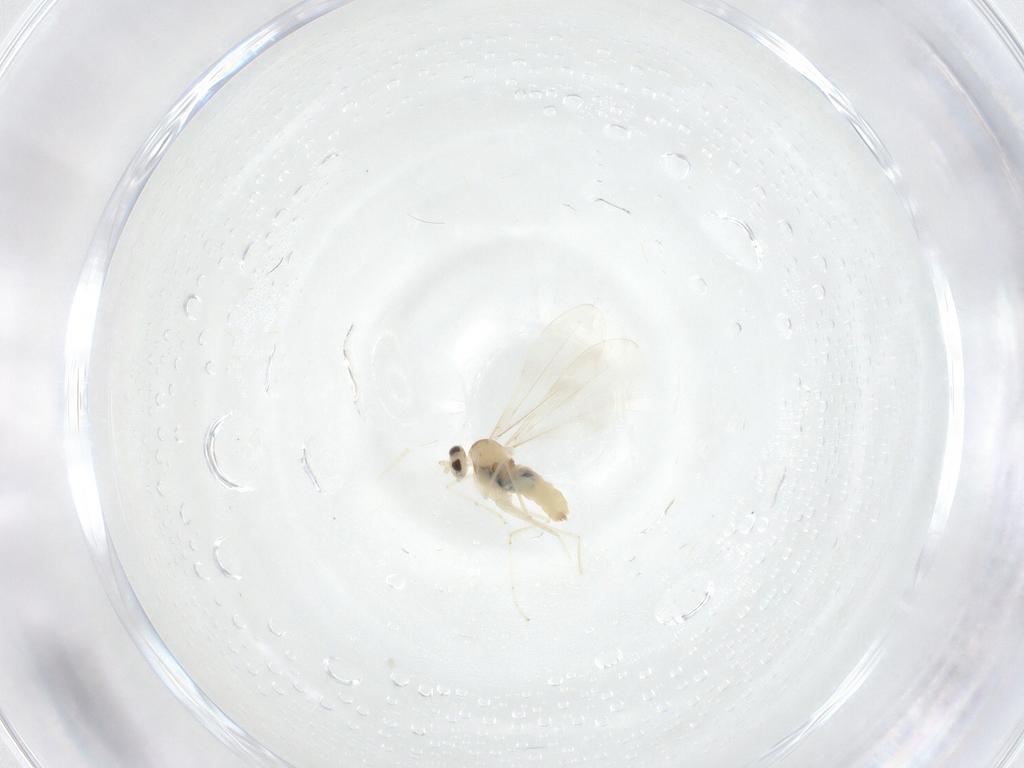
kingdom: Animalia
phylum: Arthropoda
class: Insecta
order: Diptera
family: Cecidomyiidae
